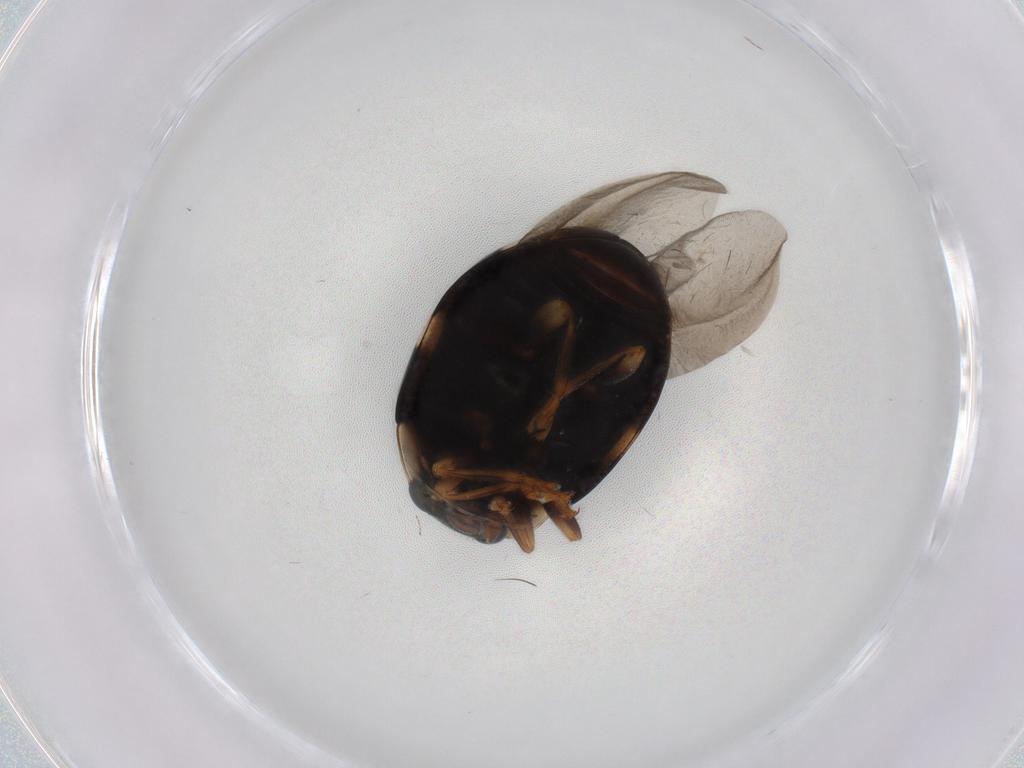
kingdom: Animalia
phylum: Arthropoda
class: Insecta
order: Coleoptera
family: Coccinellidae
